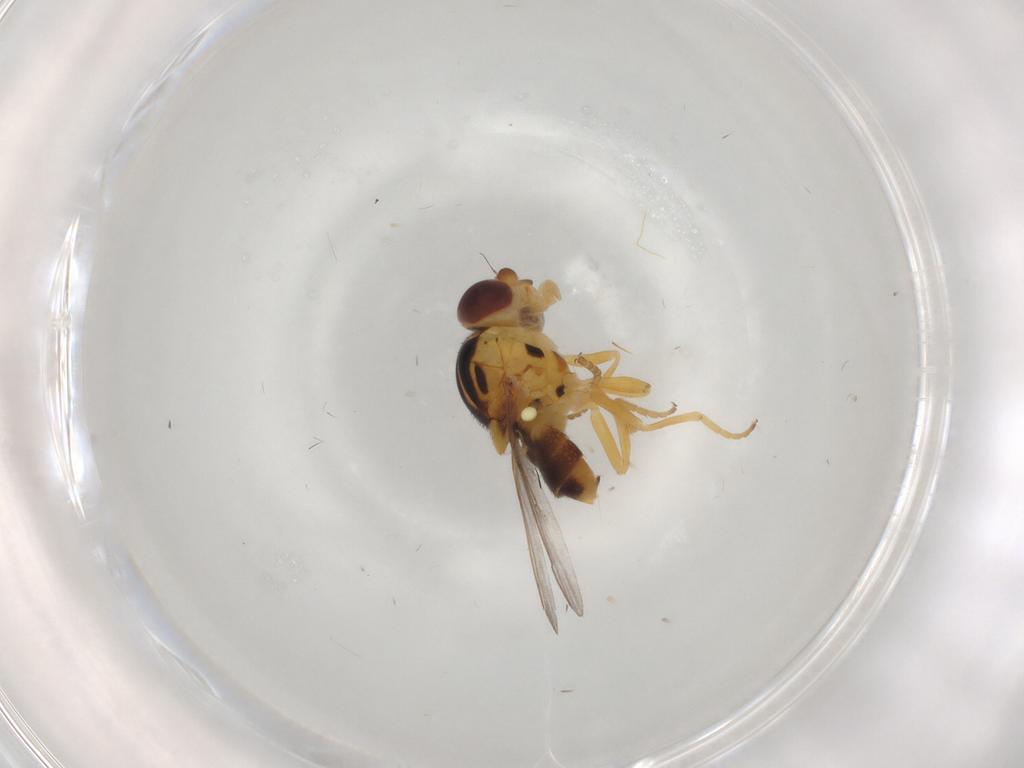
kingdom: Animalia
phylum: Arthropoda
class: Insecta
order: Diptera
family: Chloropidae
